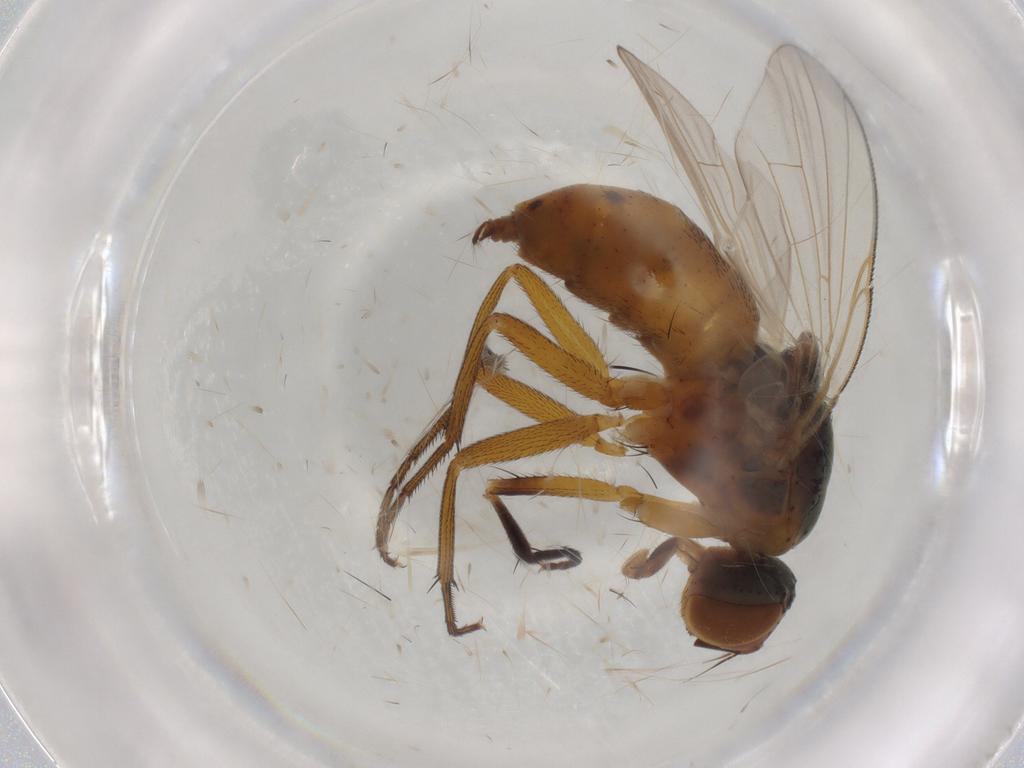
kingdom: Animalia
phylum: Arthropoda
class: Insecta
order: Diptera
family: Muscidae
